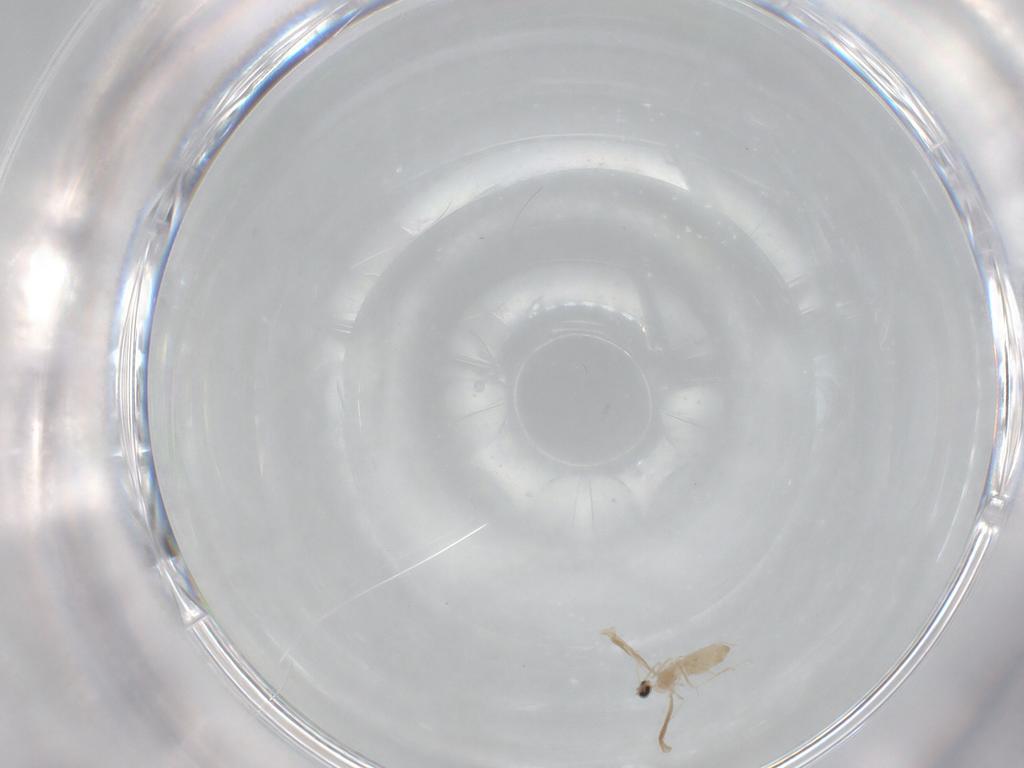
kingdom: Animalia
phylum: Arthropoda
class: Insecta
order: Diptera
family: Cecidomyiidae
